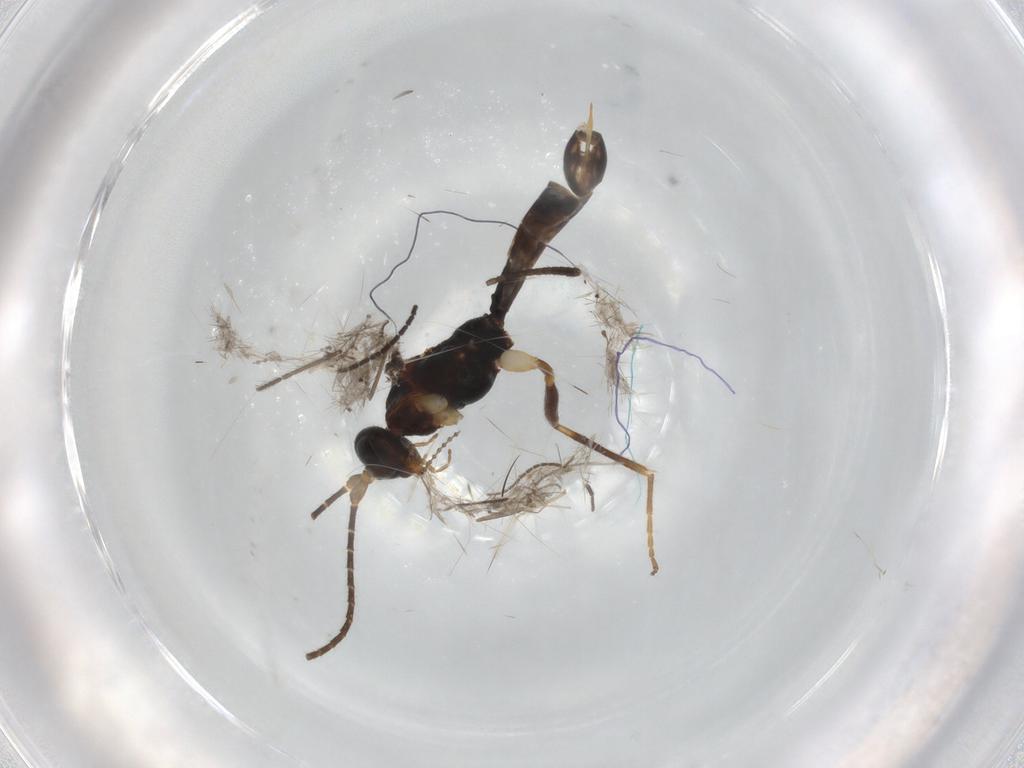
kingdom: Animalia
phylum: Arthropoda
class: Insecta
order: Hymenoptera
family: Braconidae
